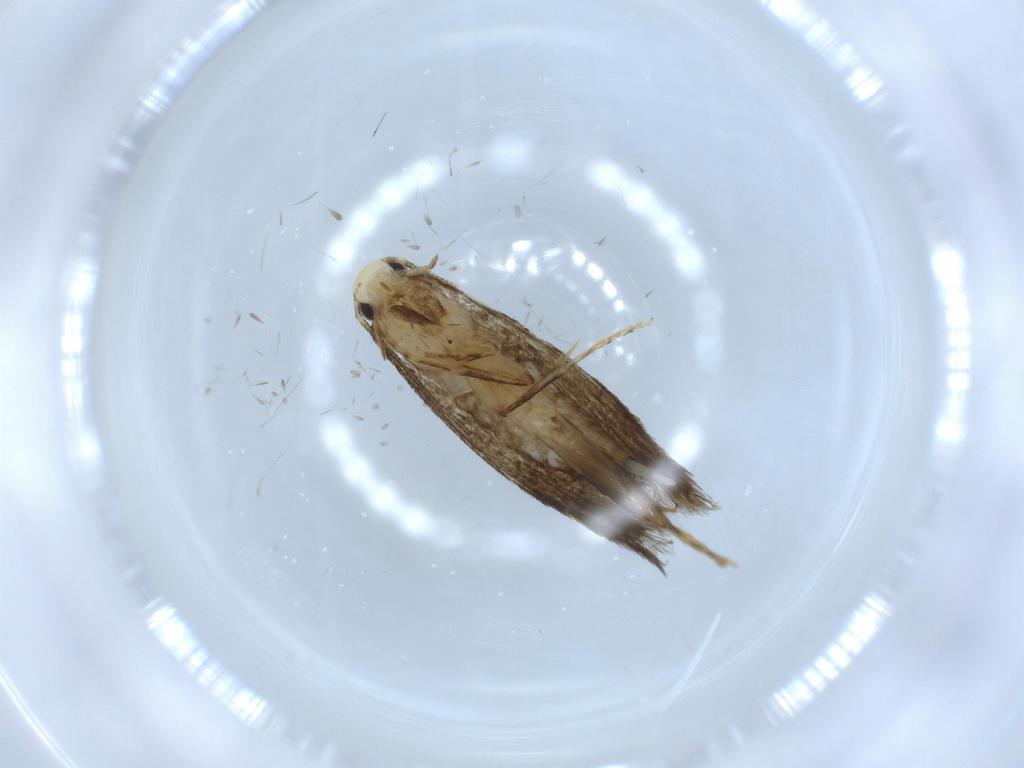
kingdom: Animalia
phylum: Arthropoda
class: Insecta
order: Lepidoptera
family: Tineidae
